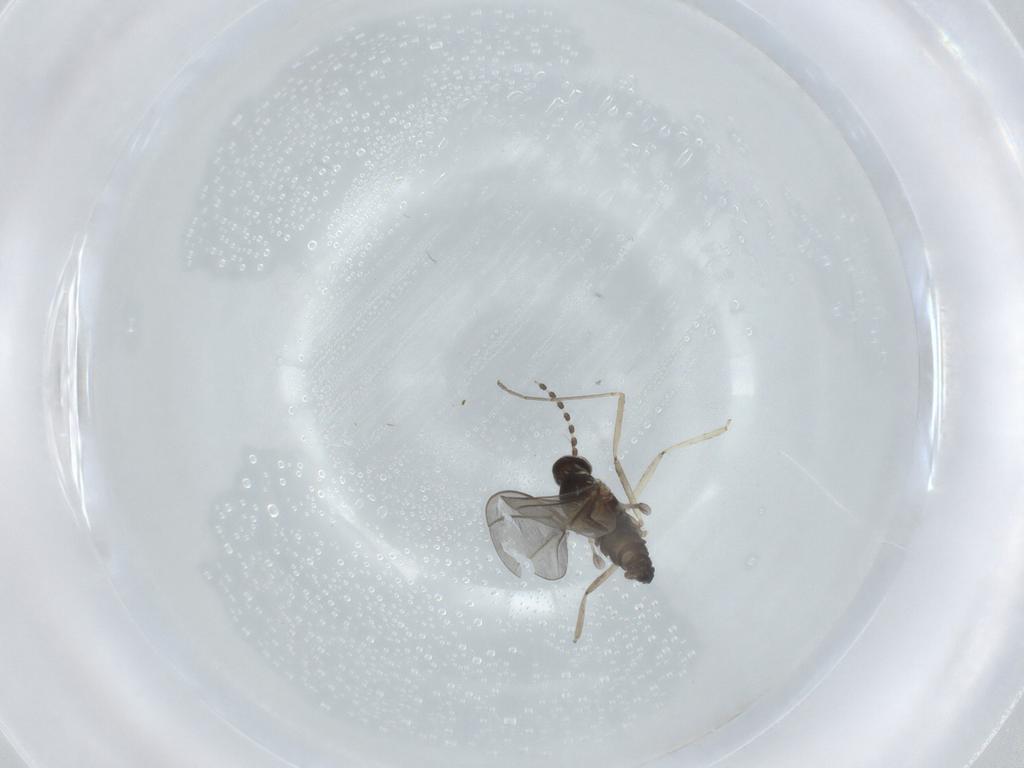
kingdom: Animalia
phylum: Arthropoda
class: Insecta
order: Diptera
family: Cecidomyiidae
